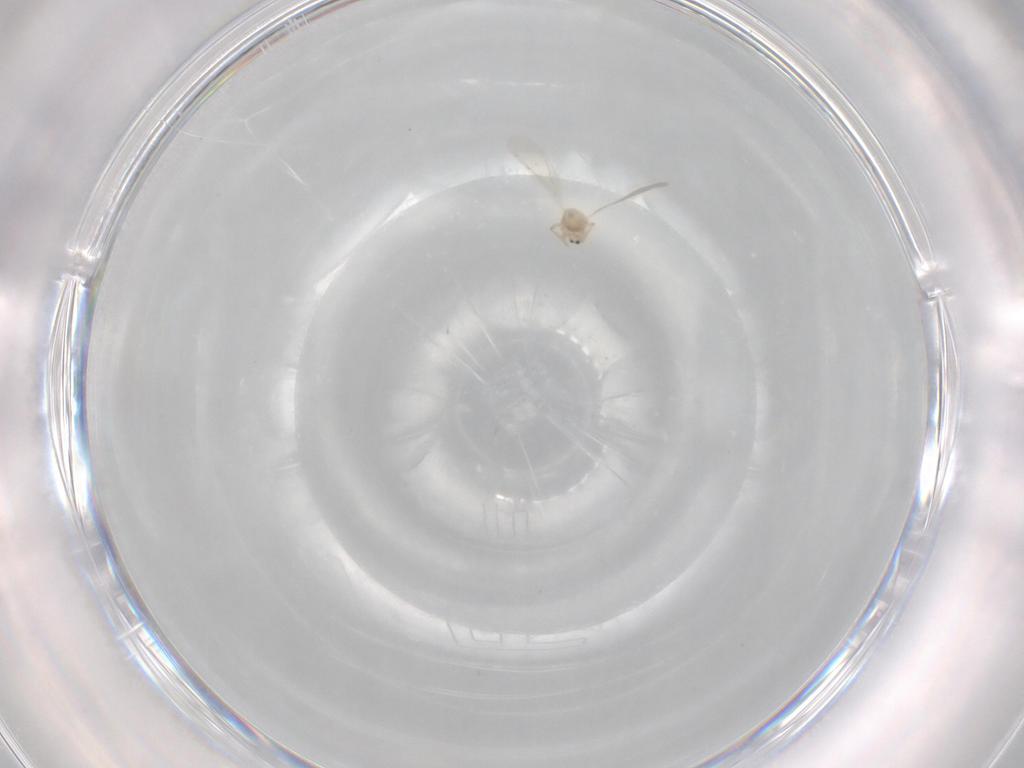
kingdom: Animalia
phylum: Arthropoda
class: Insecta
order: Hemiptera
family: Diaspididae
